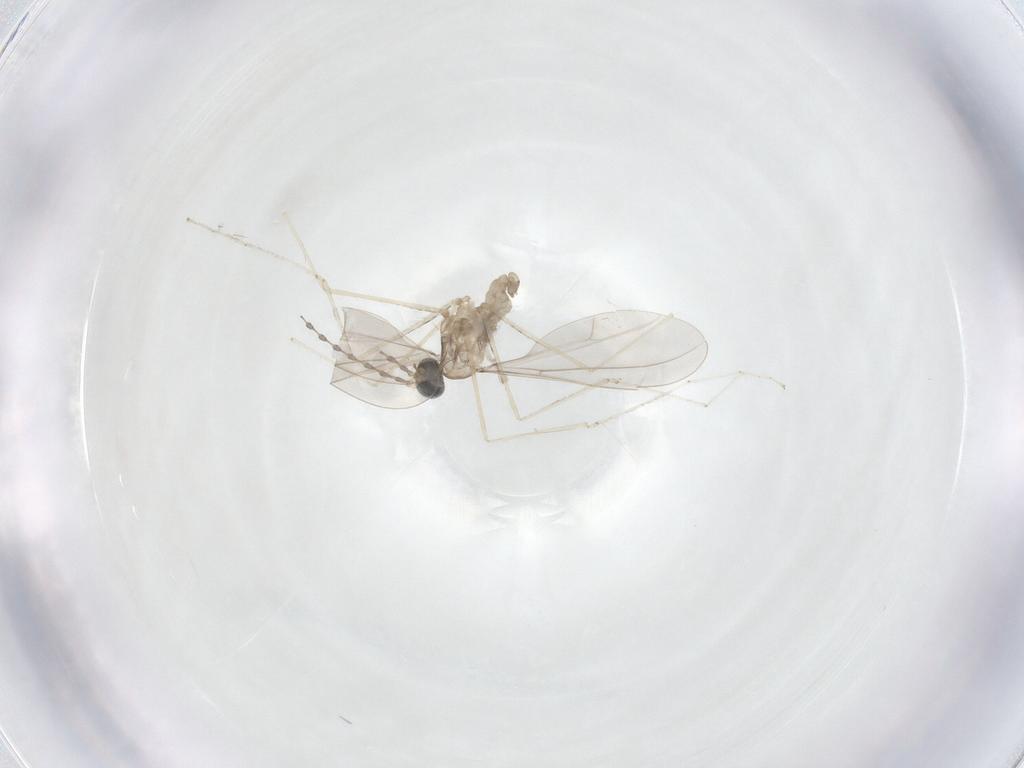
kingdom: Animalia
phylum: Arthropoda
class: Insecta
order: Diptera
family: Cecidomyiidae
